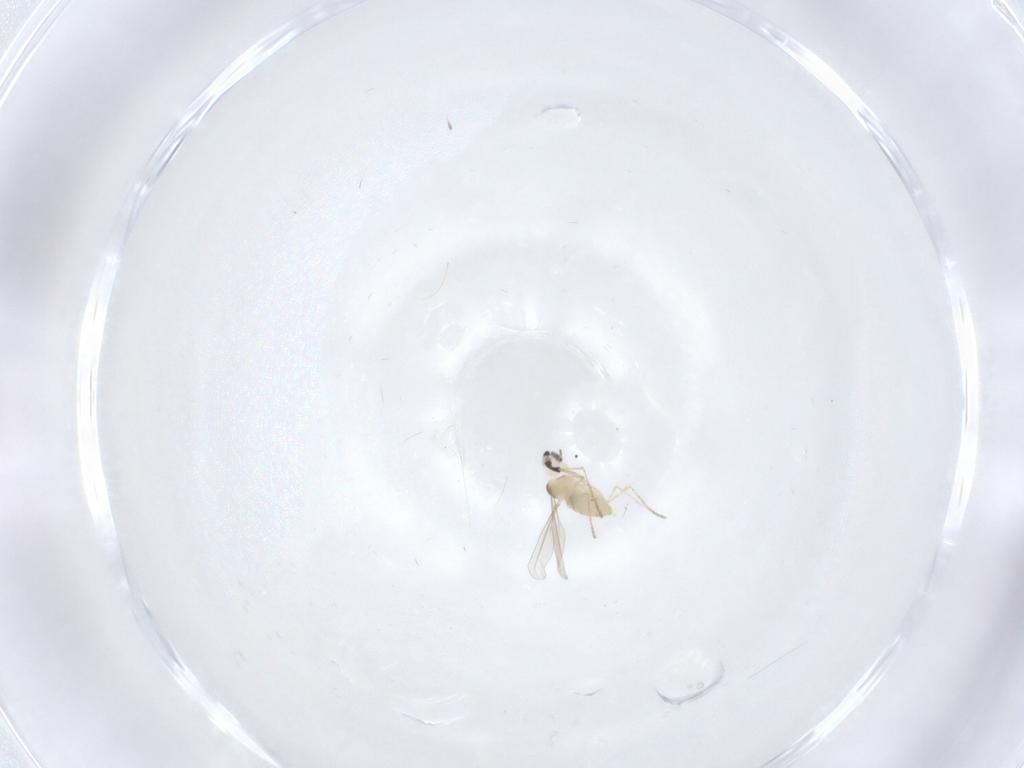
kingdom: Animalia
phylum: Arthropoda
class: Insecta
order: Diptera
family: Cecidomyiidae
